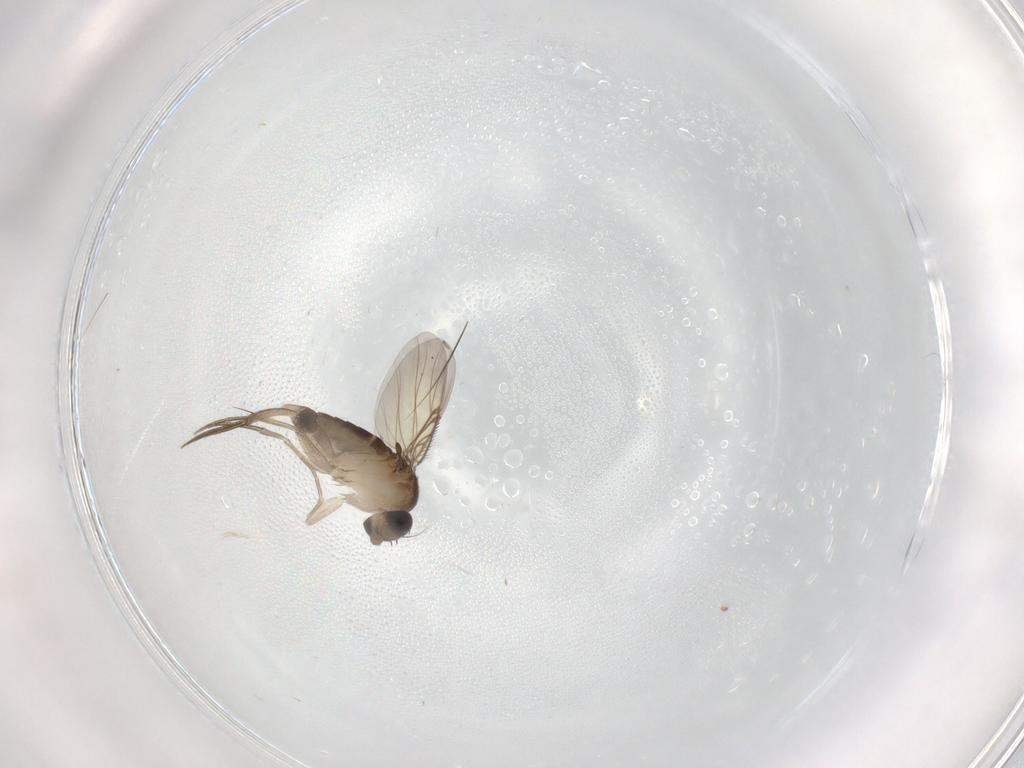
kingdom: Animalia
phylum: Arthropoda
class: Insecta
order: Diptera
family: Phoridae
